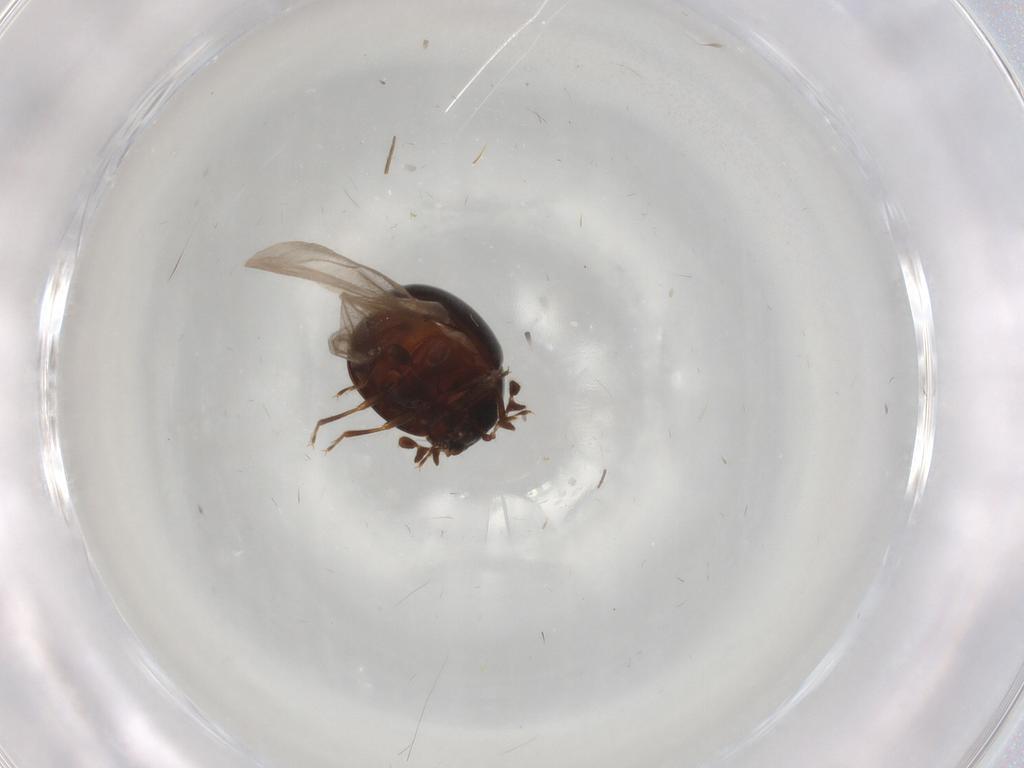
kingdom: Animalia
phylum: Arthropoda
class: Insecta
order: Coleoptera
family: Anamorphidae
